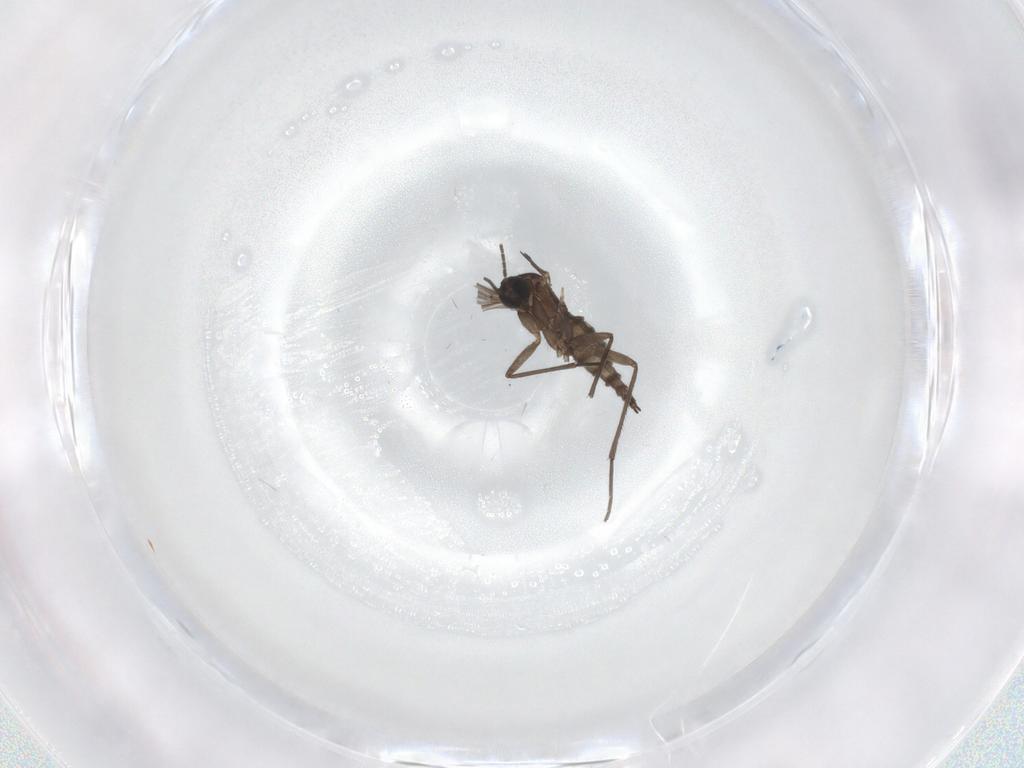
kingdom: Animalia
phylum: Arthropoda
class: Insecta
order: Diptera
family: Sciaridae
